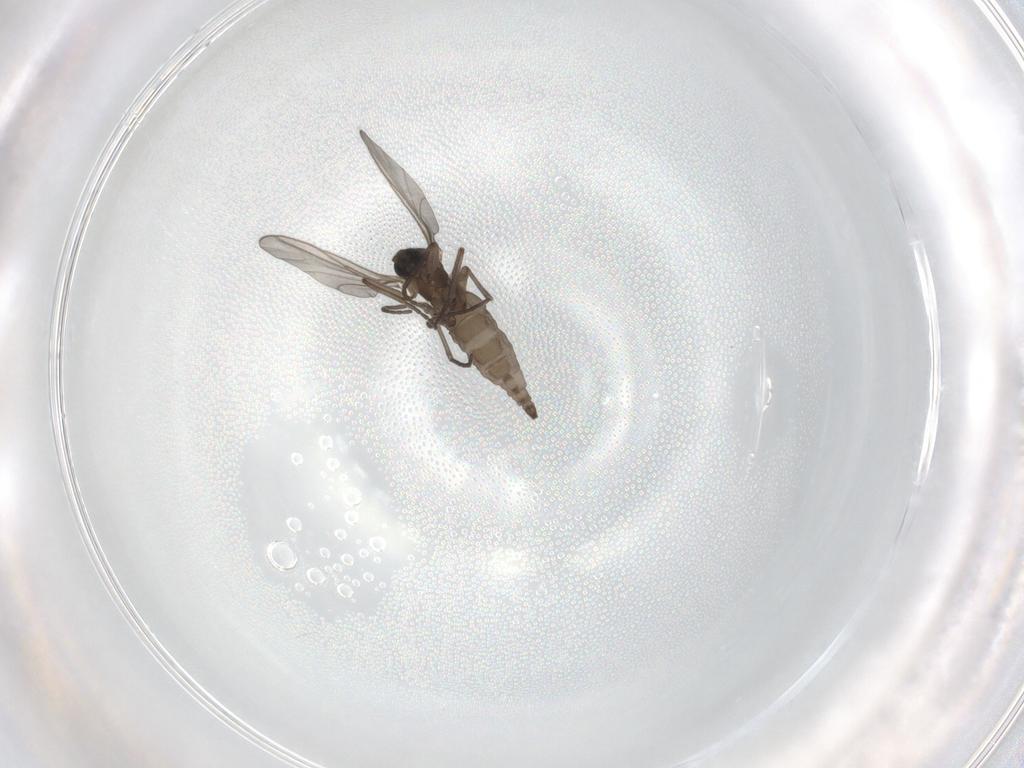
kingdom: Animalia
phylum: Arthropoda
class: Insecta
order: Diptera
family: Sciaridae
